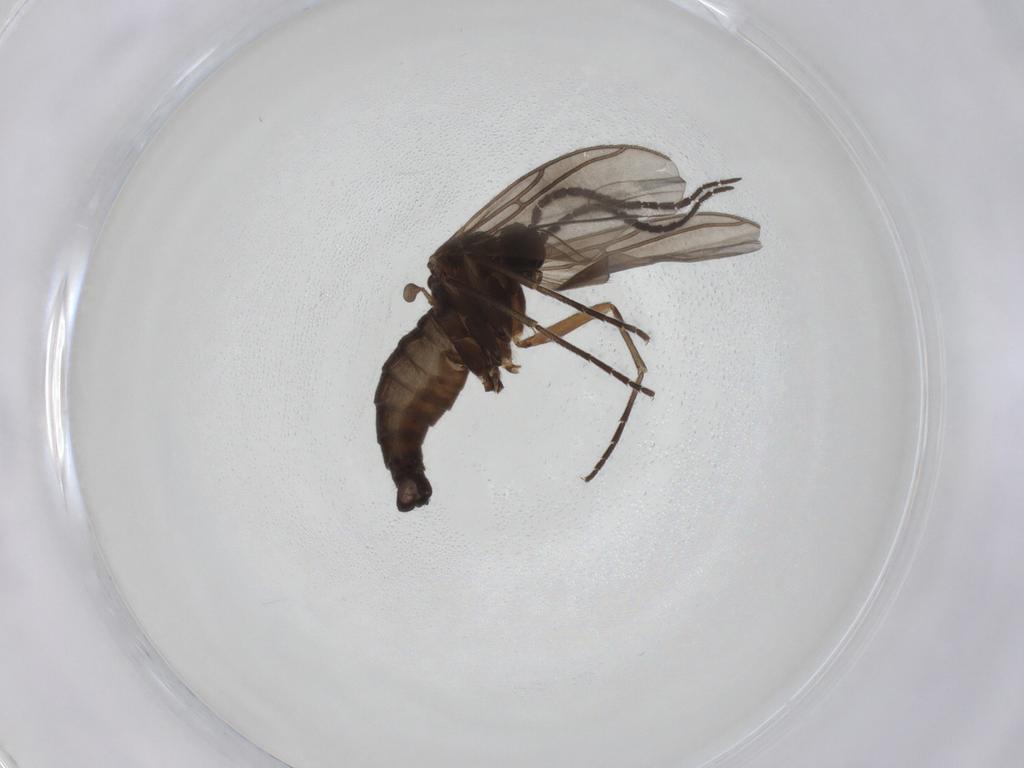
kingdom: Animalia
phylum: Arthropoda
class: Insecta
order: Diptera
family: Sciaridae
